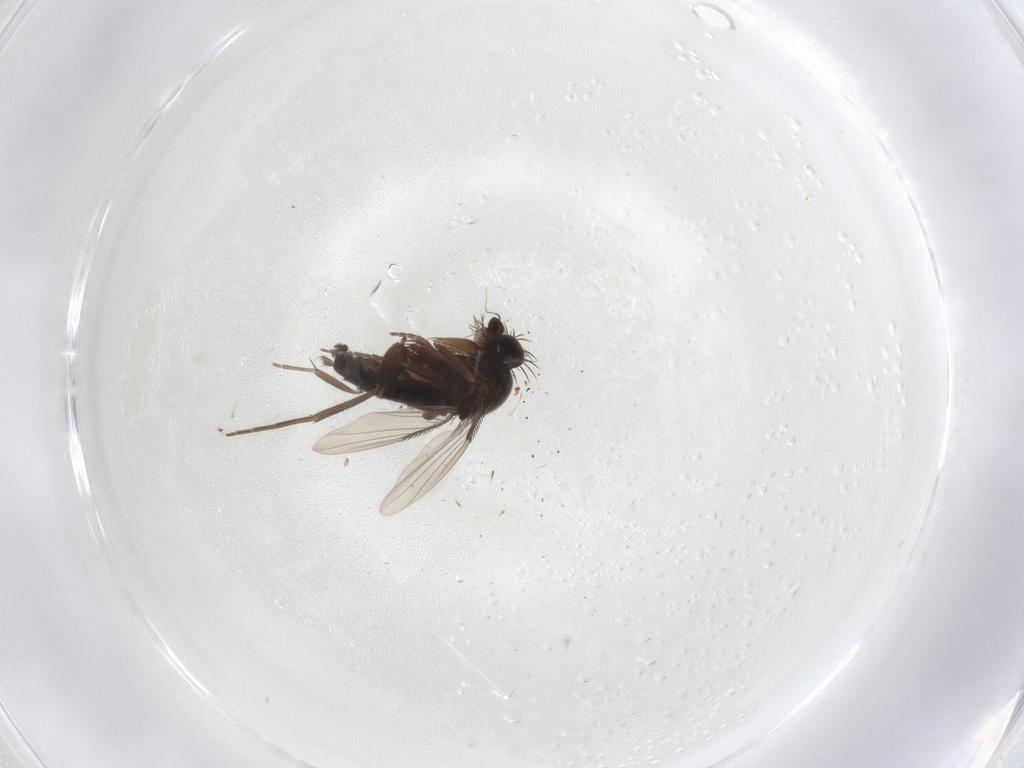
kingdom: Animalia
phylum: Arthropoda
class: Insecta
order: Diptera
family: Phoridae
